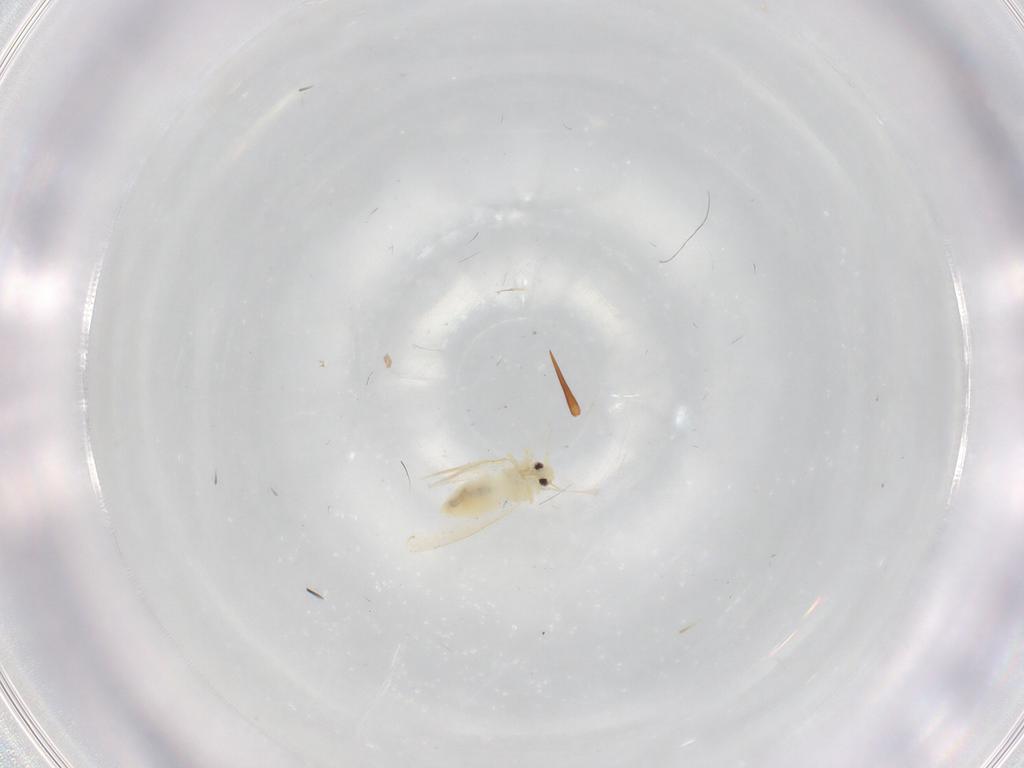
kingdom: Animalia
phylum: Arthropoda
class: Insecta
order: Hemiptera
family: Aleyrodidae
